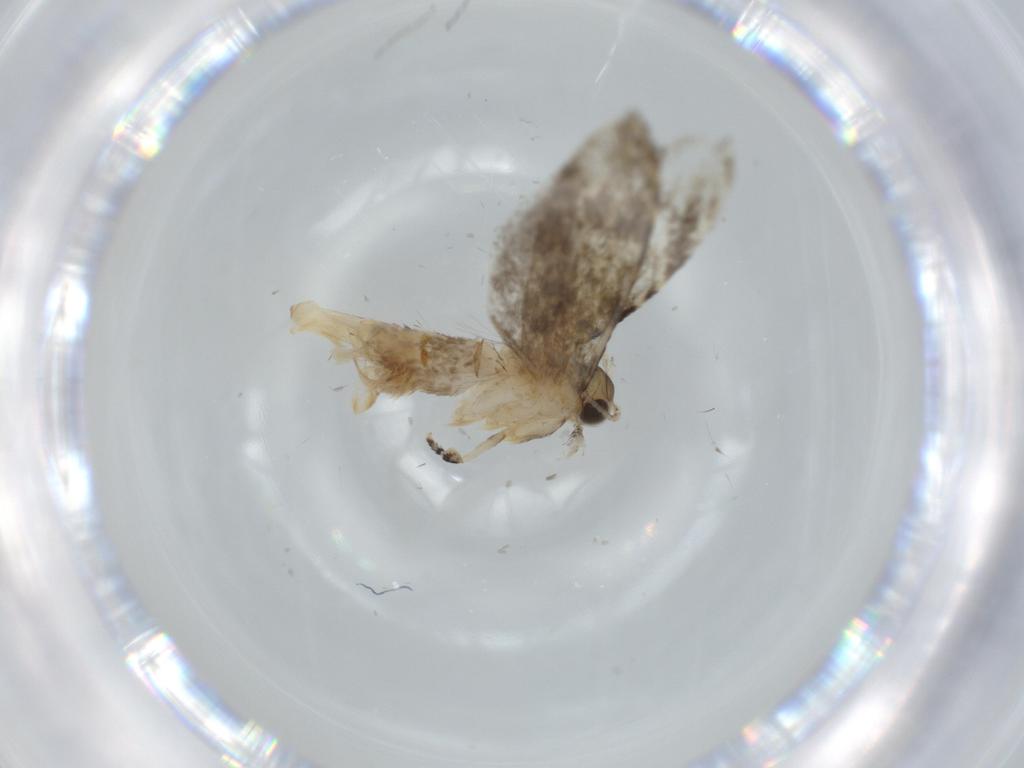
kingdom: Animalia
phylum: Arthropoda
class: Insecta
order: Lepidoptera
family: Tineidae
